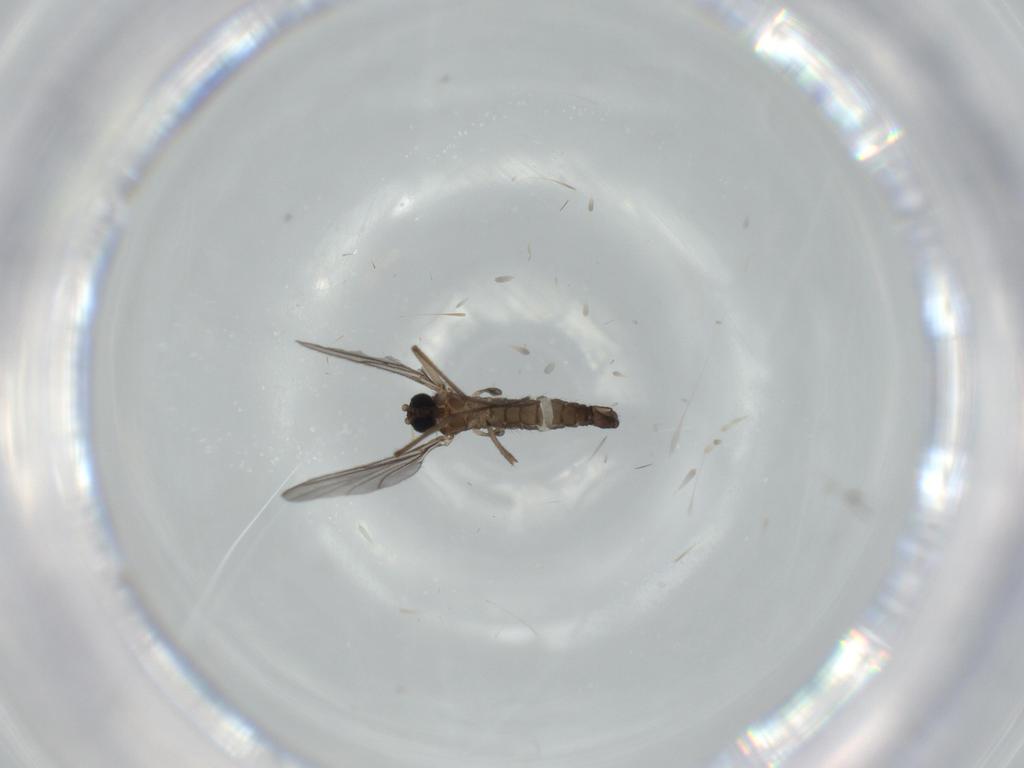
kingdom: Animalia
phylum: Arthropoda
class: Insecta
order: Diptera
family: Sciaridae
